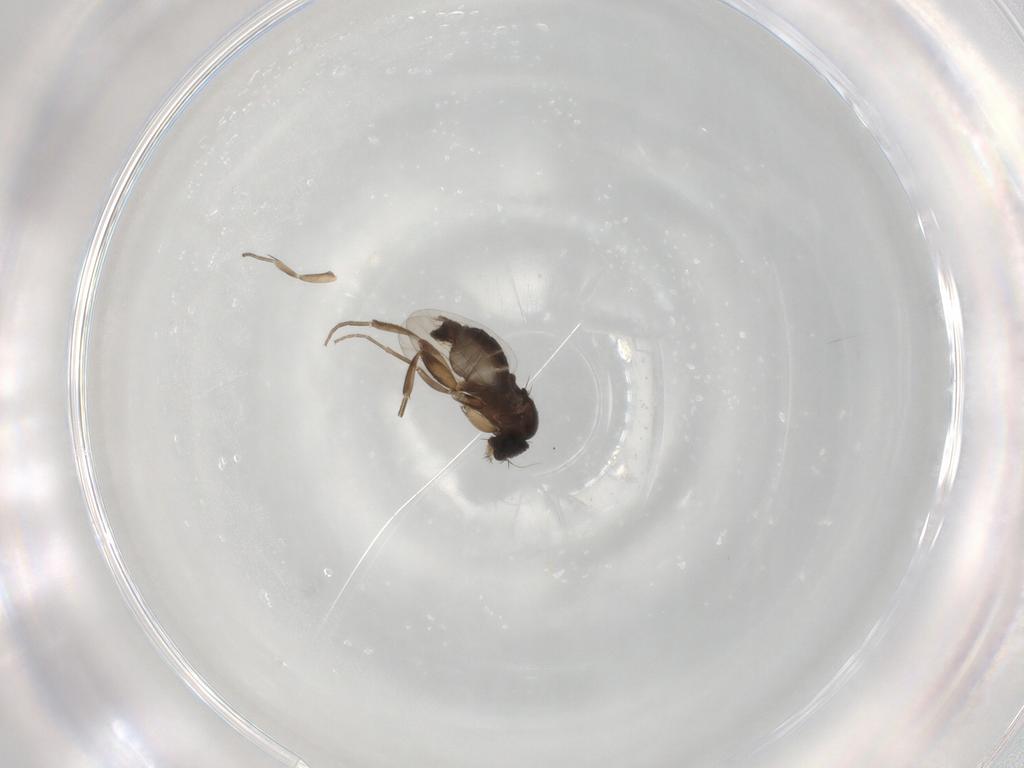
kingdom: Animalia
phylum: Arthropoda
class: Insecta
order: Diptera
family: Phoridae
